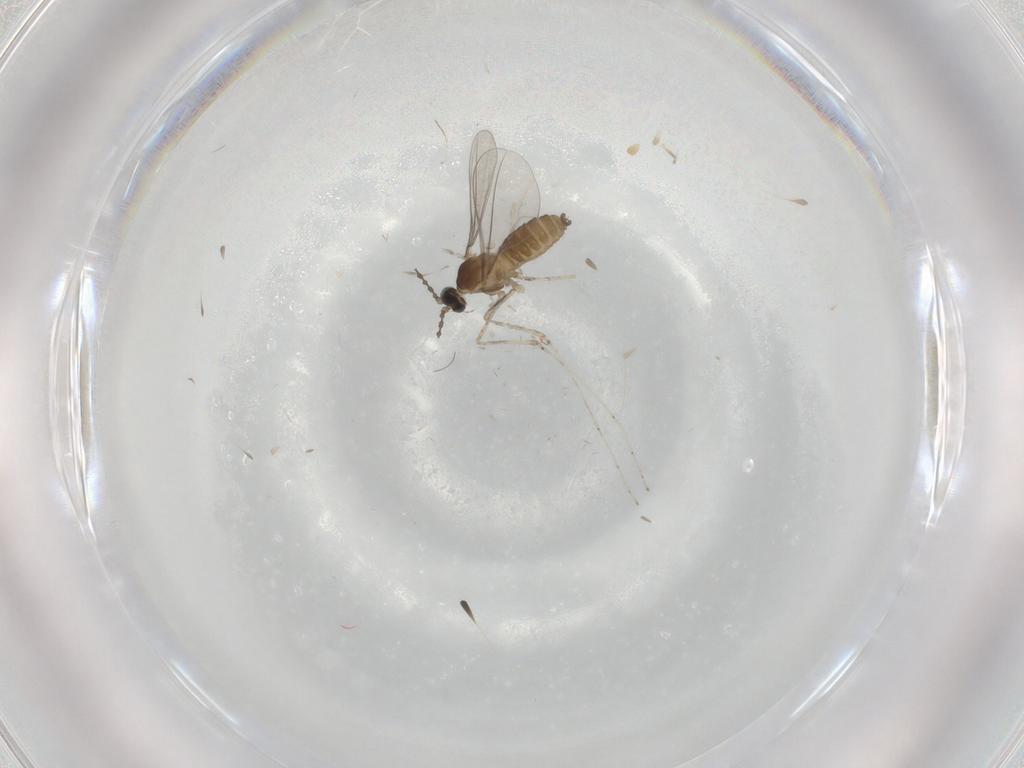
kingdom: Animalia
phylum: Arthropoda
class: Insecta
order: Diptera
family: Cecidomyiidae
